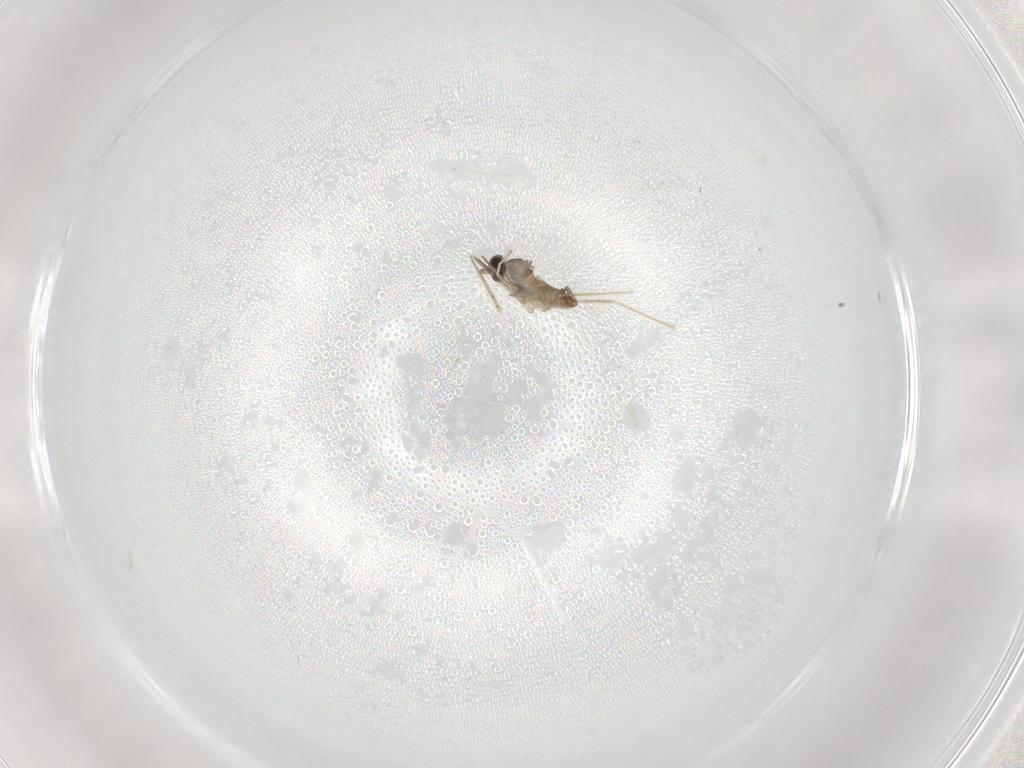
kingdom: Animalia
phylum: Arthropoda
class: Insecta
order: Diptera
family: Cecidomyiidae
